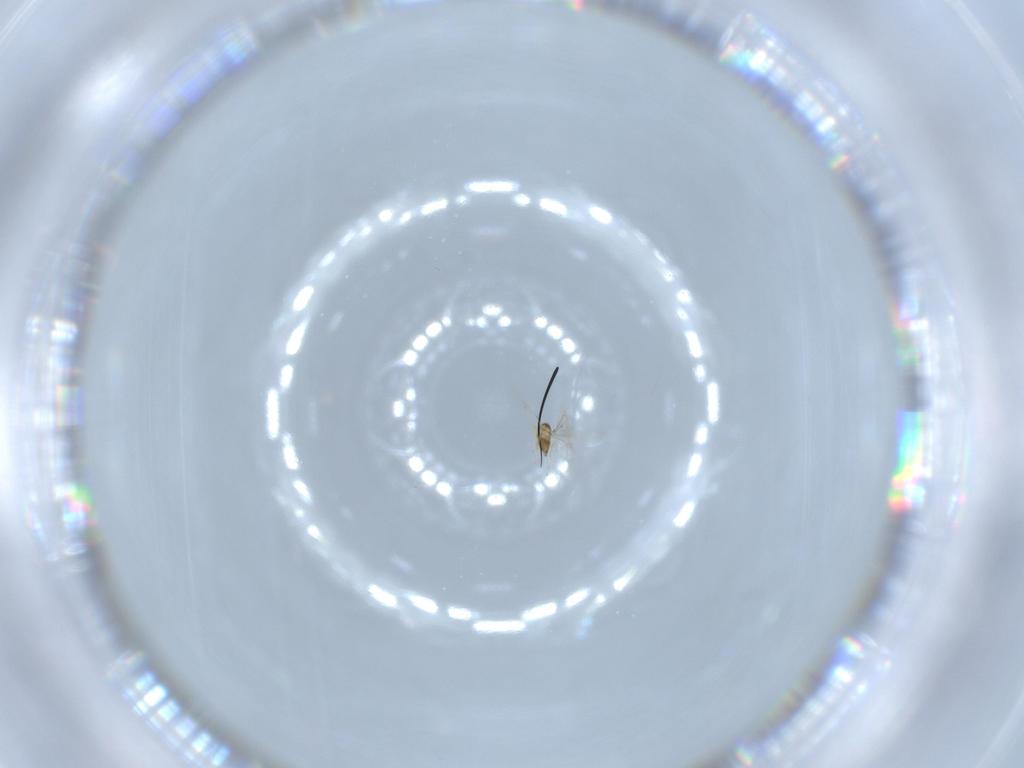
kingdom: Animalia
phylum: Arthropoda
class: Insecta
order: Hymenoptera
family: Mymaridae
